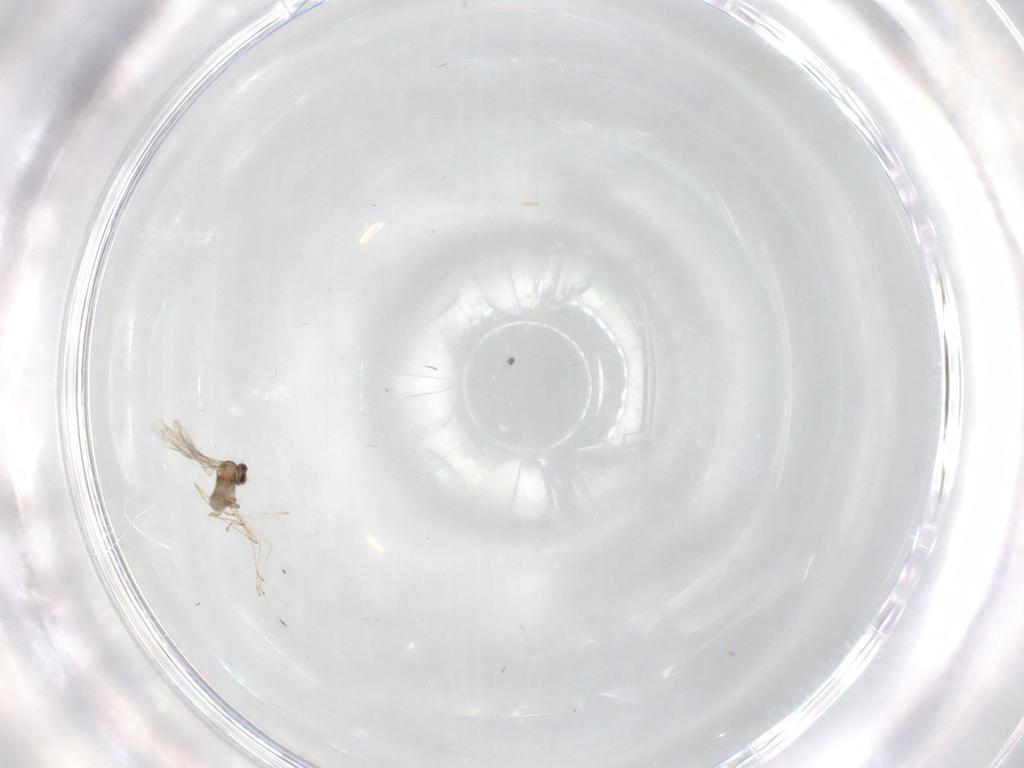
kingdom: Animalia
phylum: Arthropoda
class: Insecta
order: Diptera
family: Cecidomyiidae
